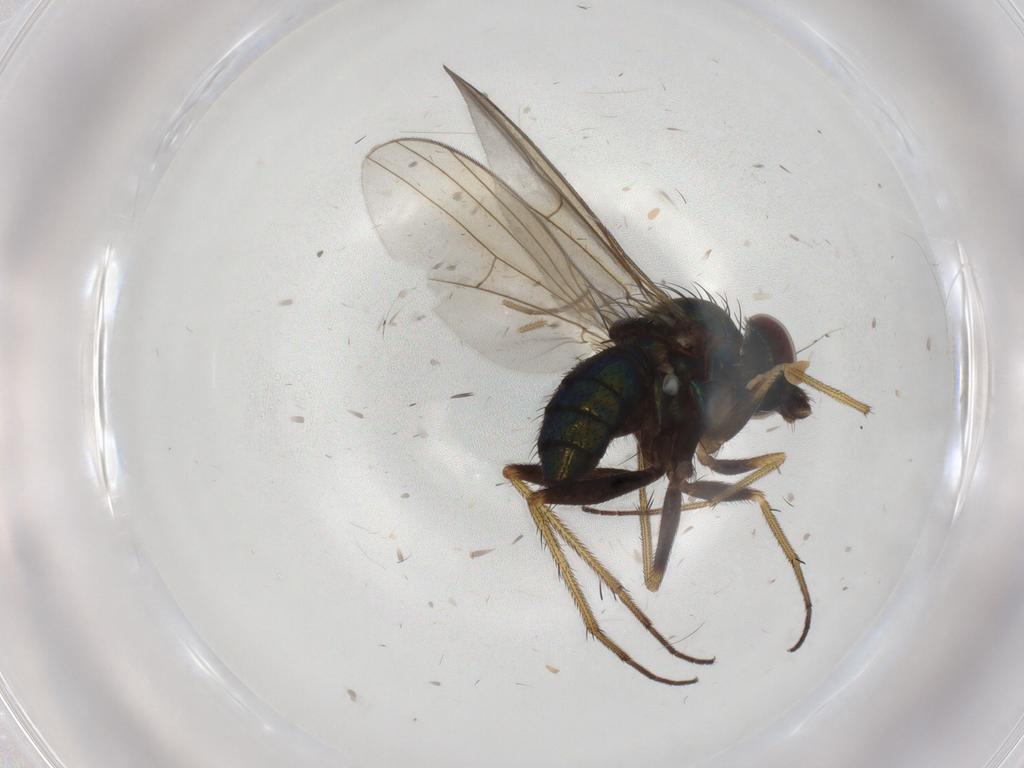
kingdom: Animalia
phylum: Arthropoda
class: Insecta
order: Diptera
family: Dolichopodidae
